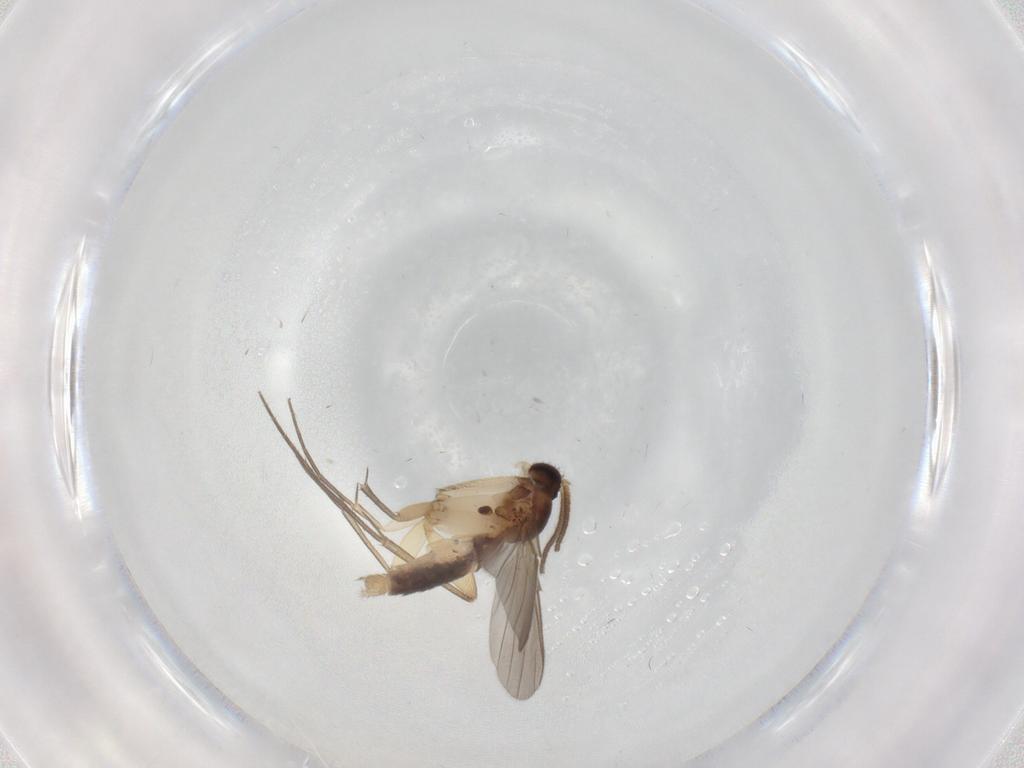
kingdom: Animalia
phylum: Arthropoda
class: Insecta
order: Diptera
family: Mycetophilidae
